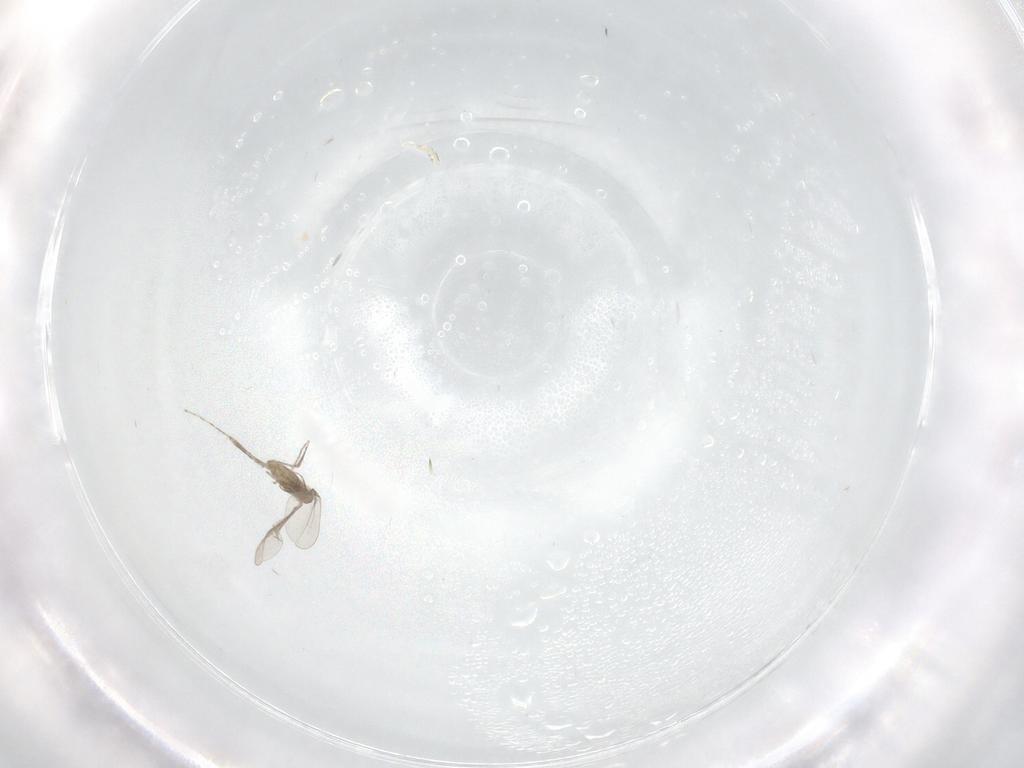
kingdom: Animalia
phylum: Arthropoda
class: Insecta
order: Diptera
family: Cecidomyiidae
